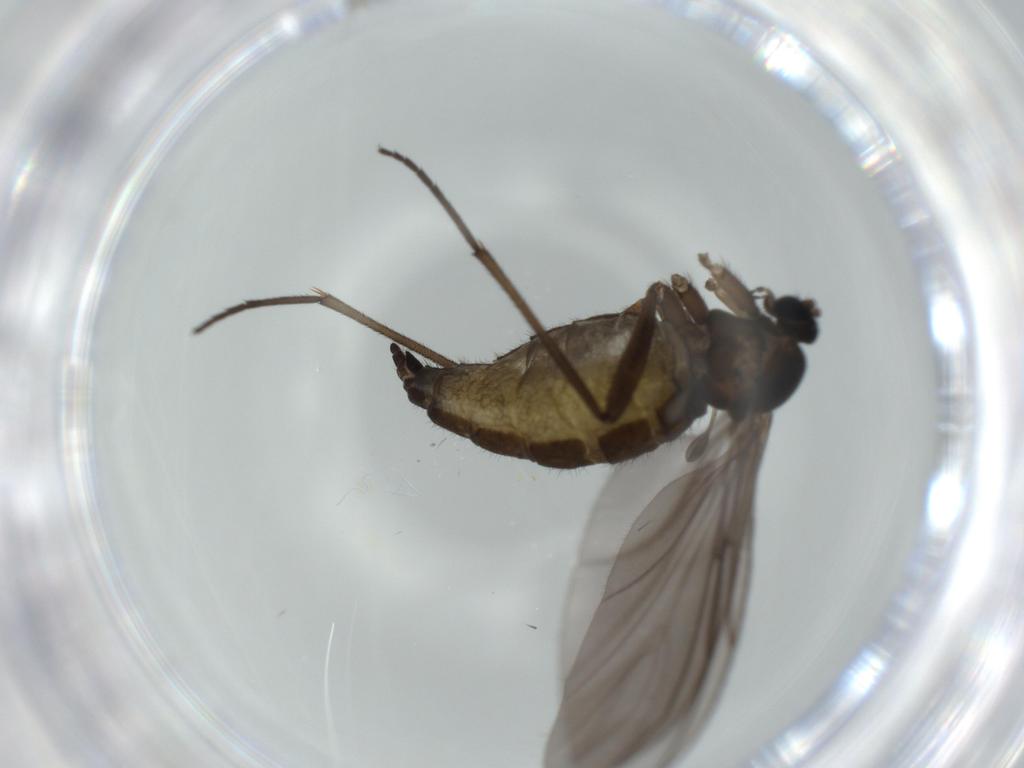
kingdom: Animalia
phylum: Arthropoda
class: Insecta
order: Diptera
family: Sciaridae
